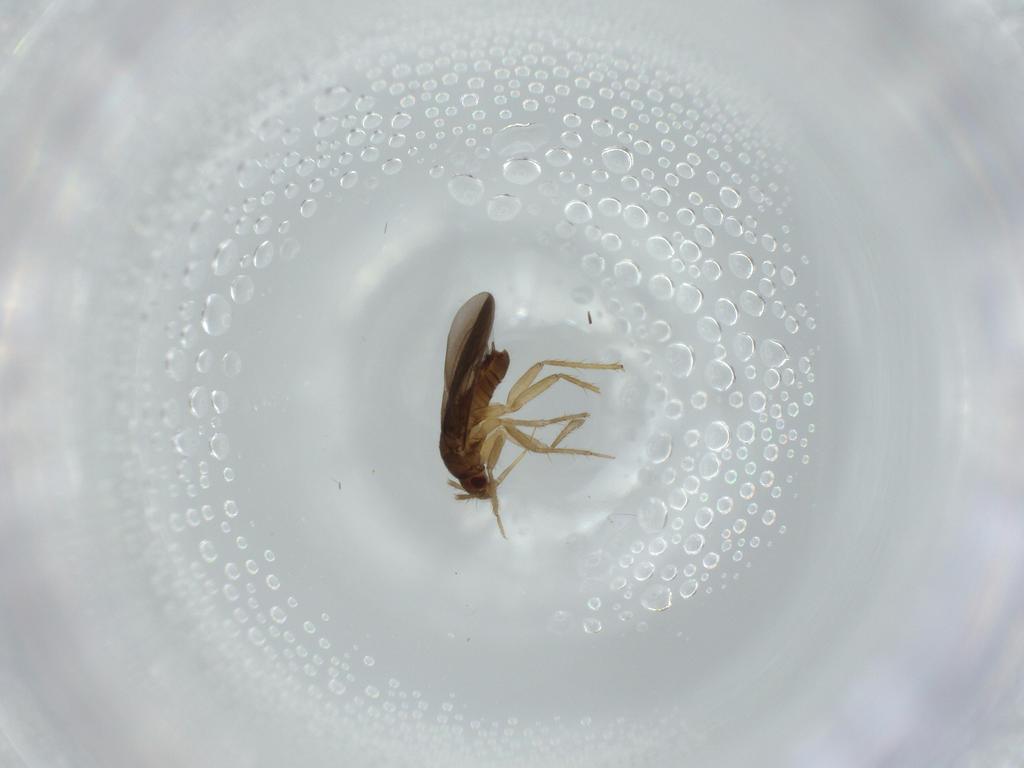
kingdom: Animalia
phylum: Arthropoda
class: Insecta
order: Hemiptera
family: Ceratocombidae
